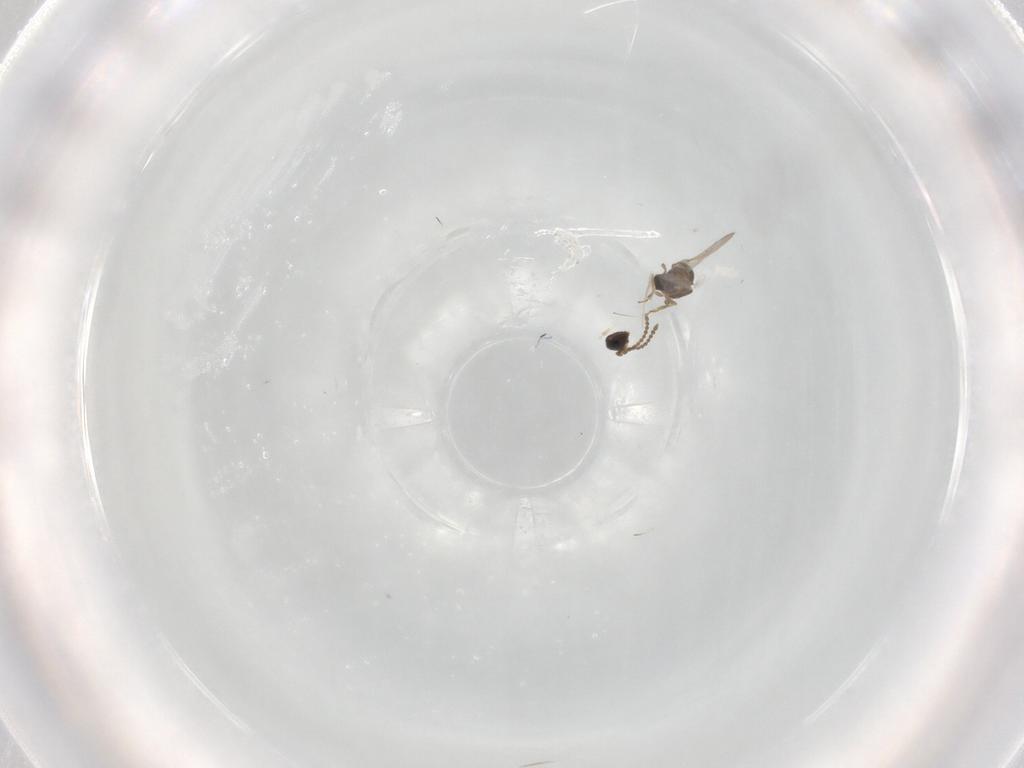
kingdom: Animalia
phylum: Arthropoda
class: Insecta
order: Hymenoptera
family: Scelionidae
